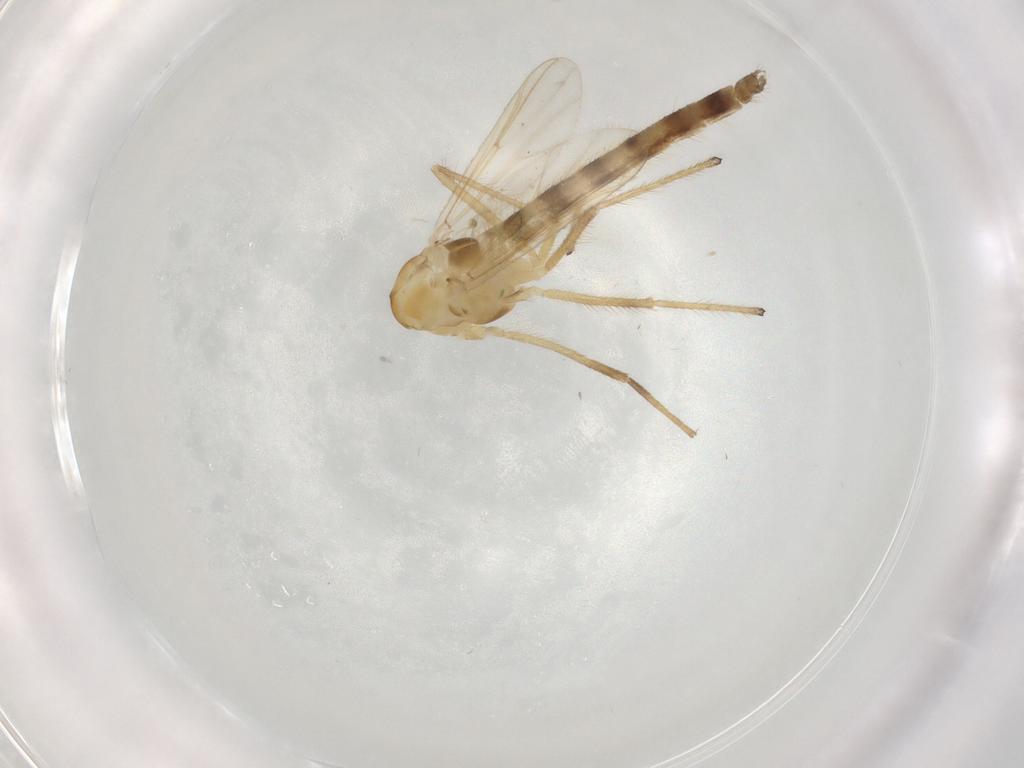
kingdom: Animalia
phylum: Arthropoda
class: Insecta
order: Diptera
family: Chironomidae
